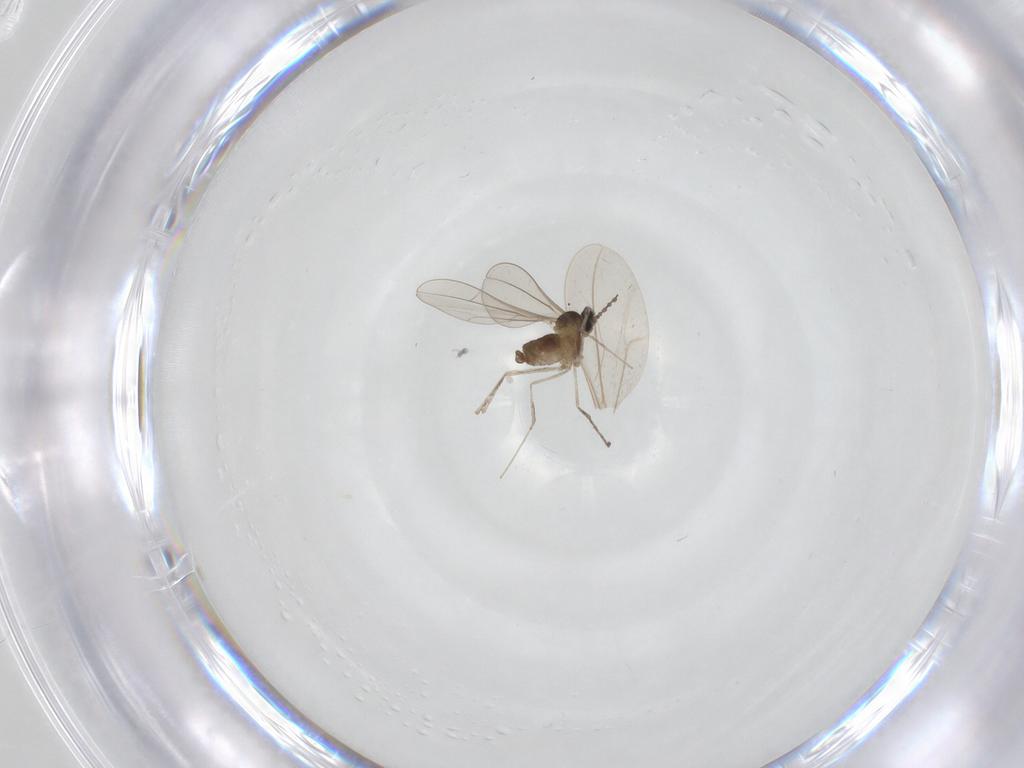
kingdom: Animalia
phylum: Arthropoda
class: Insecta
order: Diptera
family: Cecidomyiidae
